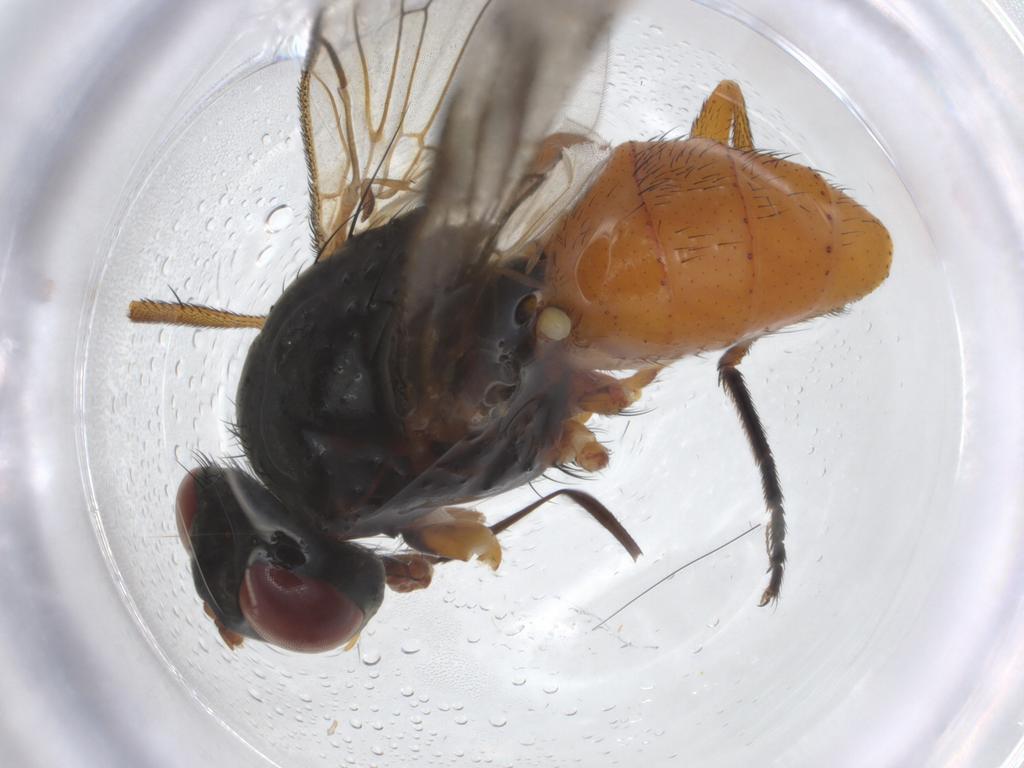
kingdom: Animalia
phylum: Arthropoda
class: Insecta
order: Diptera
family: Anthomyiidae
